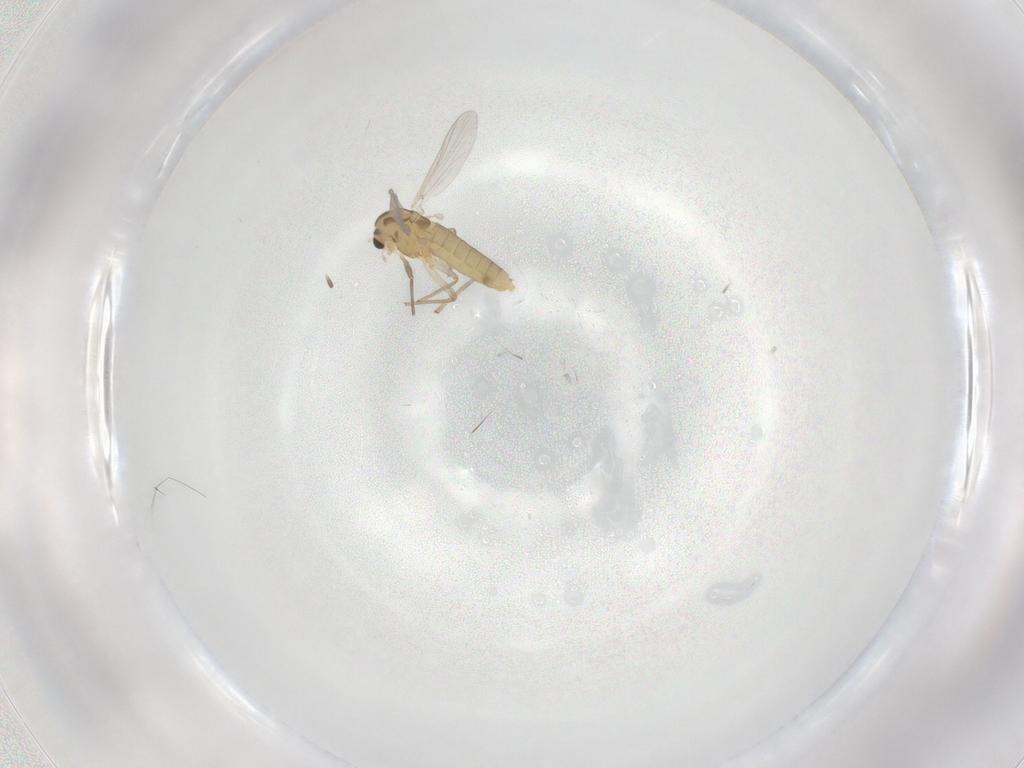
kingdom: Animalia
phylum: Arthropoda
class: Insecta
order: Diptera
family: Chironomidae
